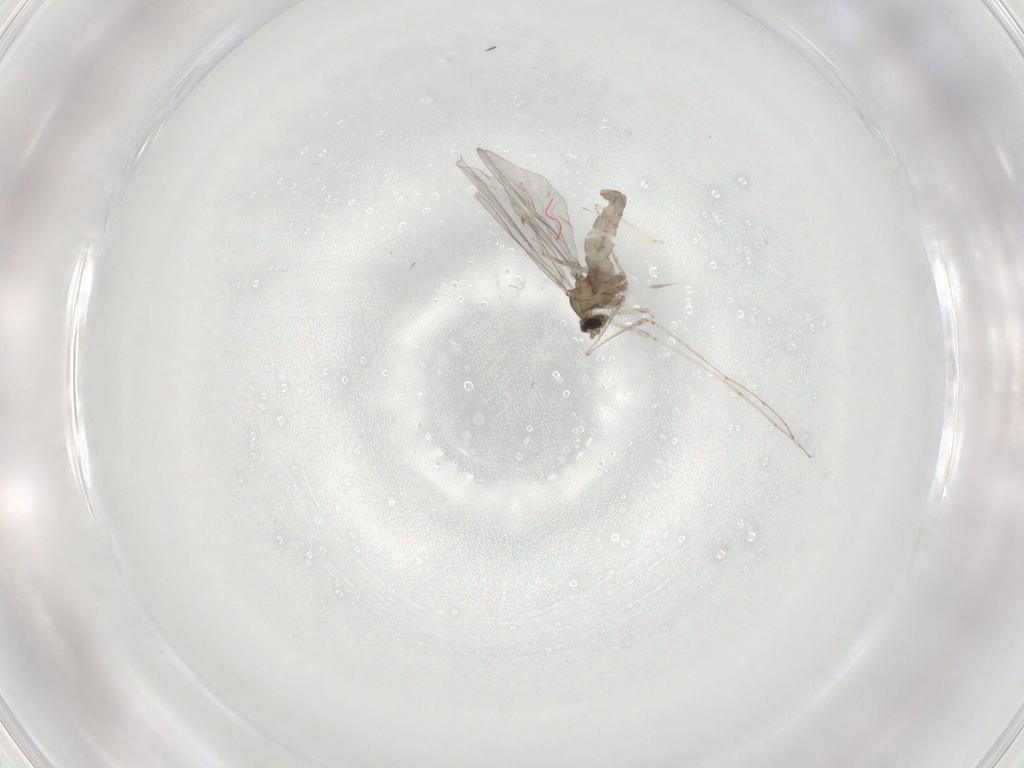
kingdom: Animalia
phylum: Arthropoda
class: Insecta
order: Diptera
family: Cecidomyiidae
